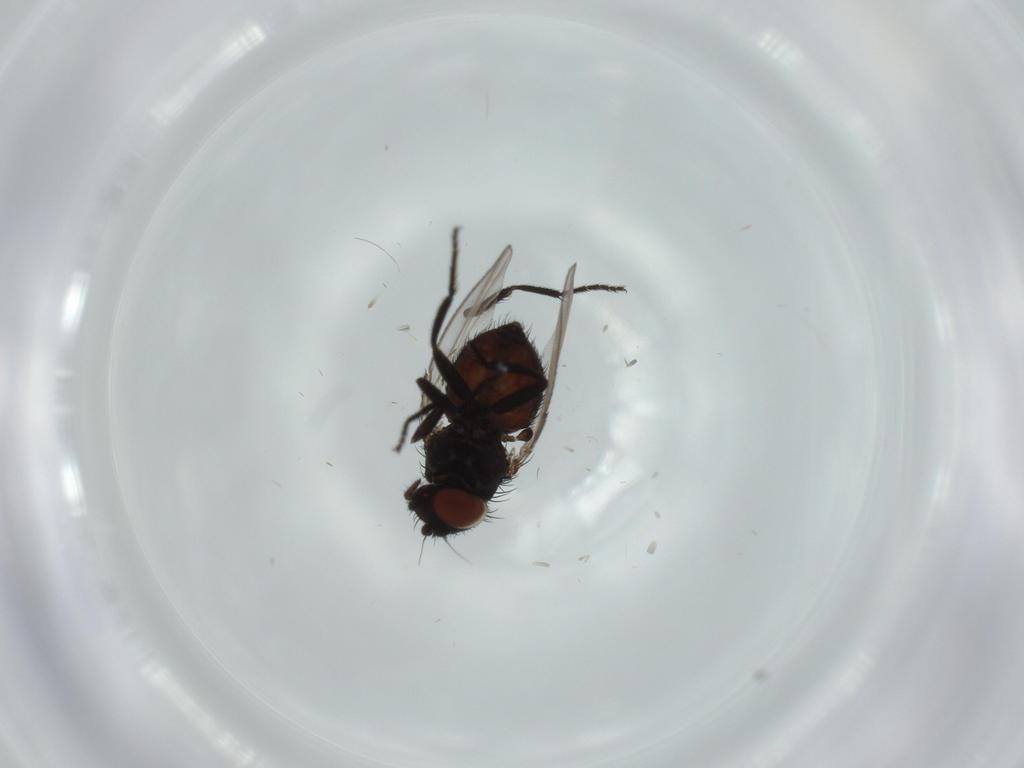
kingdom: Animalia
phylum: Arthropoda
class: Insecta
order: Diptera
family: Milichiidae
